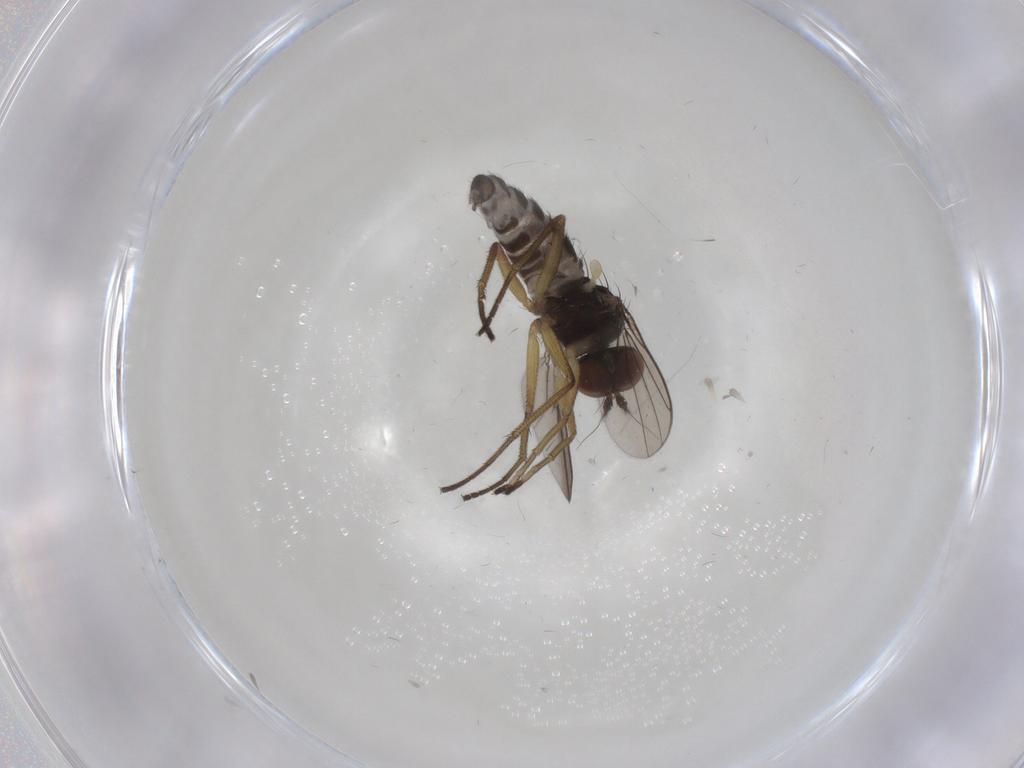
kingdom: Animalia
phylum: Arthropoda
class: Insecta
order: Diptera
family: Dolichopodidae
